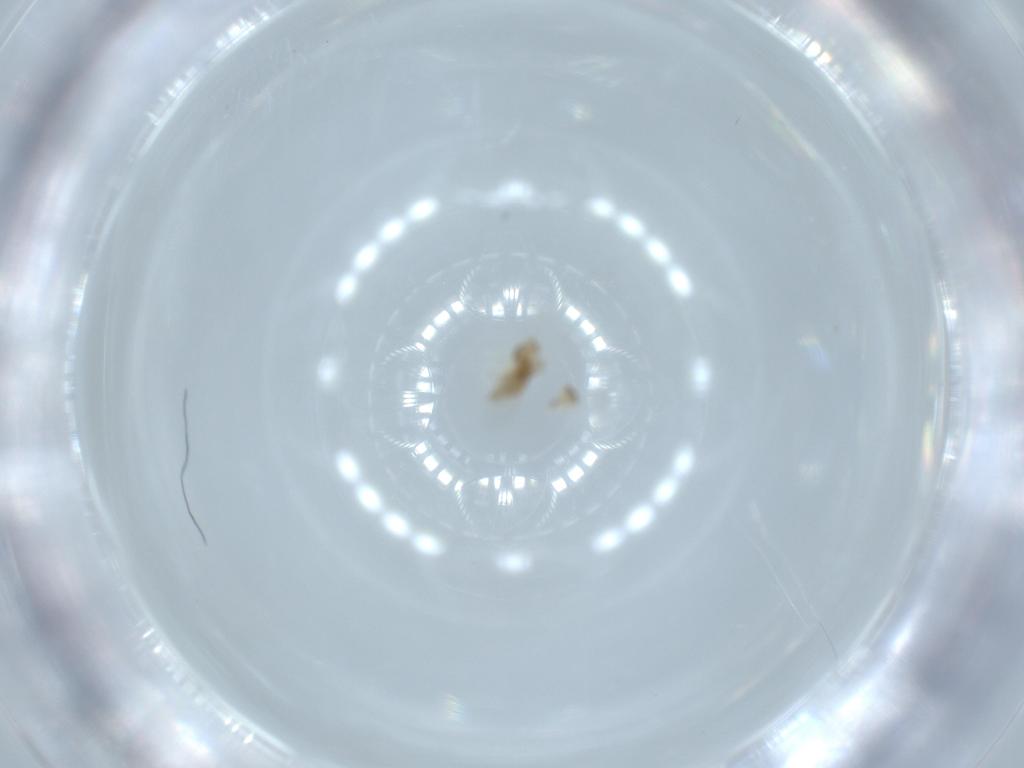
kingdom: Animalia
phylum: Arthropoda
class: Insecta
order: Diptera
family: Chironomidae
